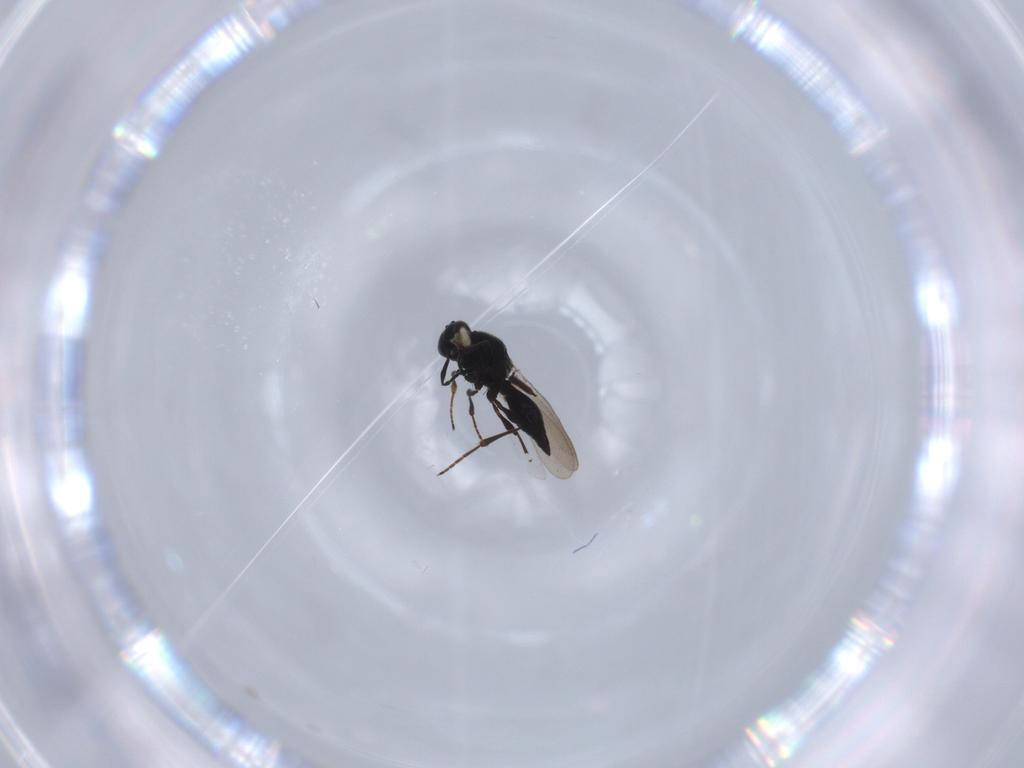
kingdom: Animalia
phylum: Arthropoda
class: Insecta
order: Hymenoptera
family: Platygastridae
